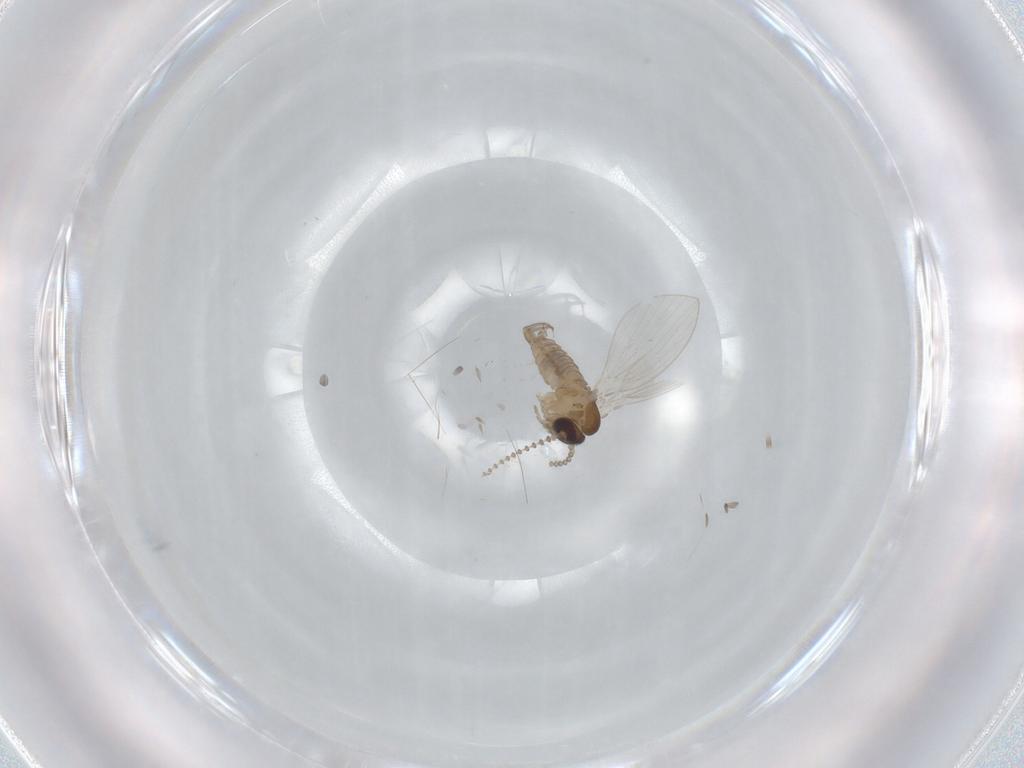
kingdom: Animalia
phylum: Arthropoda
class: Insecta
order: Diptera
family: Psychodidae
